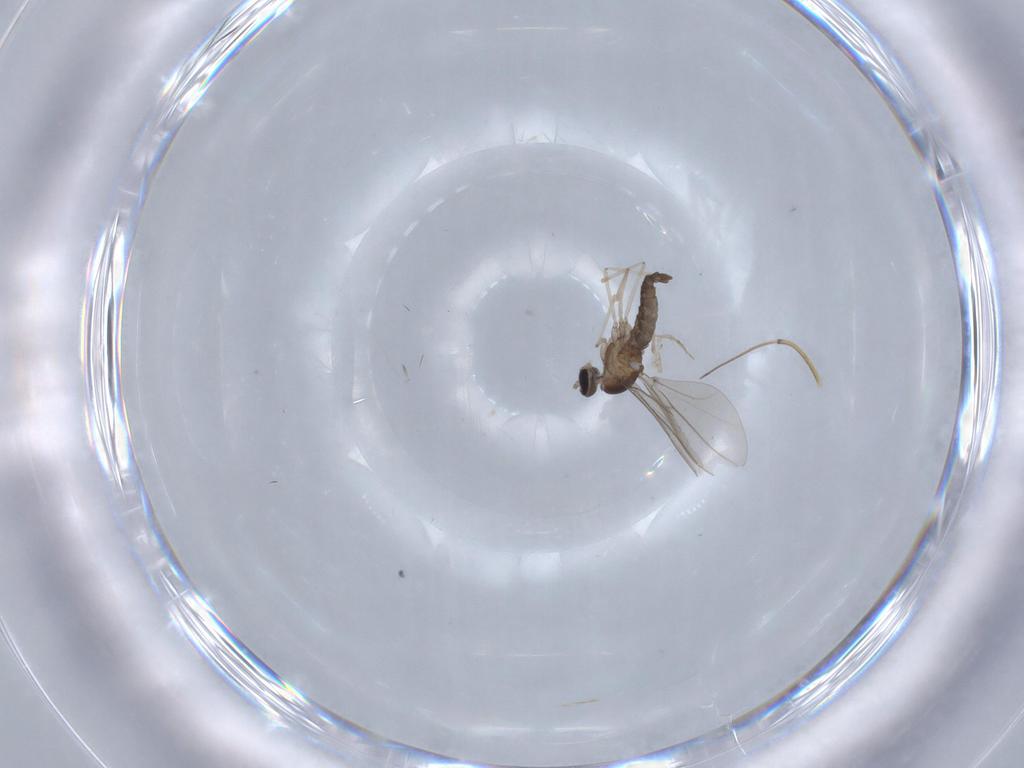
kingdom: Animalia
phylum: Arthropoda
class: Insecta
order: Diptera
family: Cecidomyiidae
